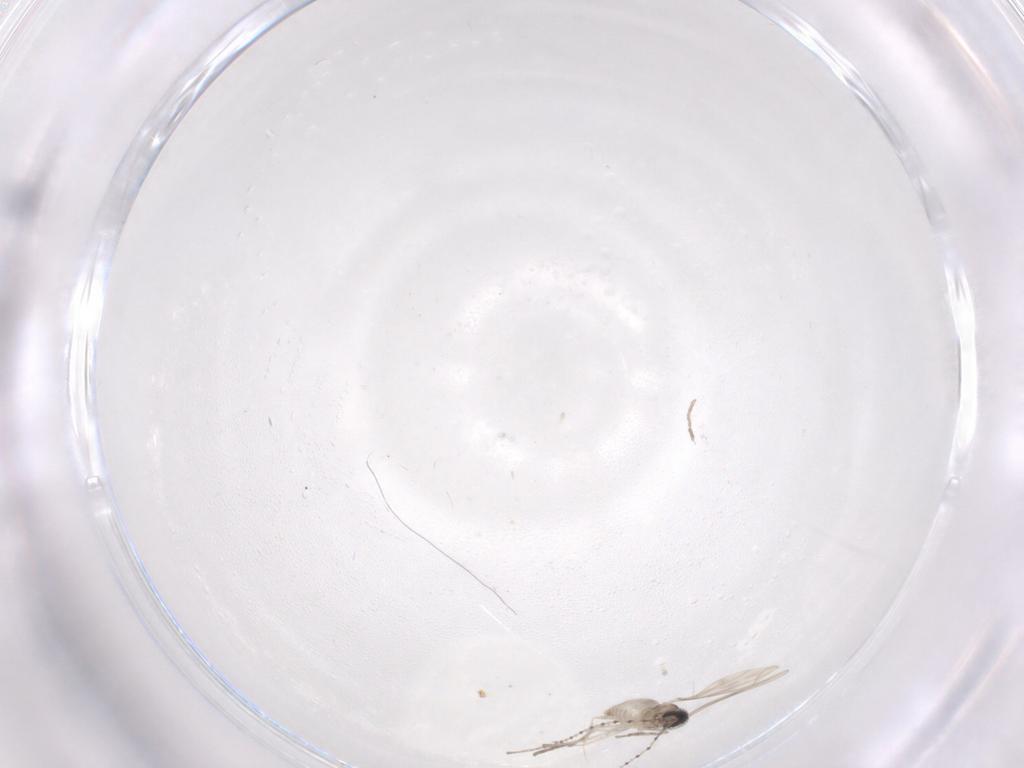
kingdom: Animalia
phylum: Arthropoda
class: Insecta
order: Diptera
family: Cecidomyiidae
